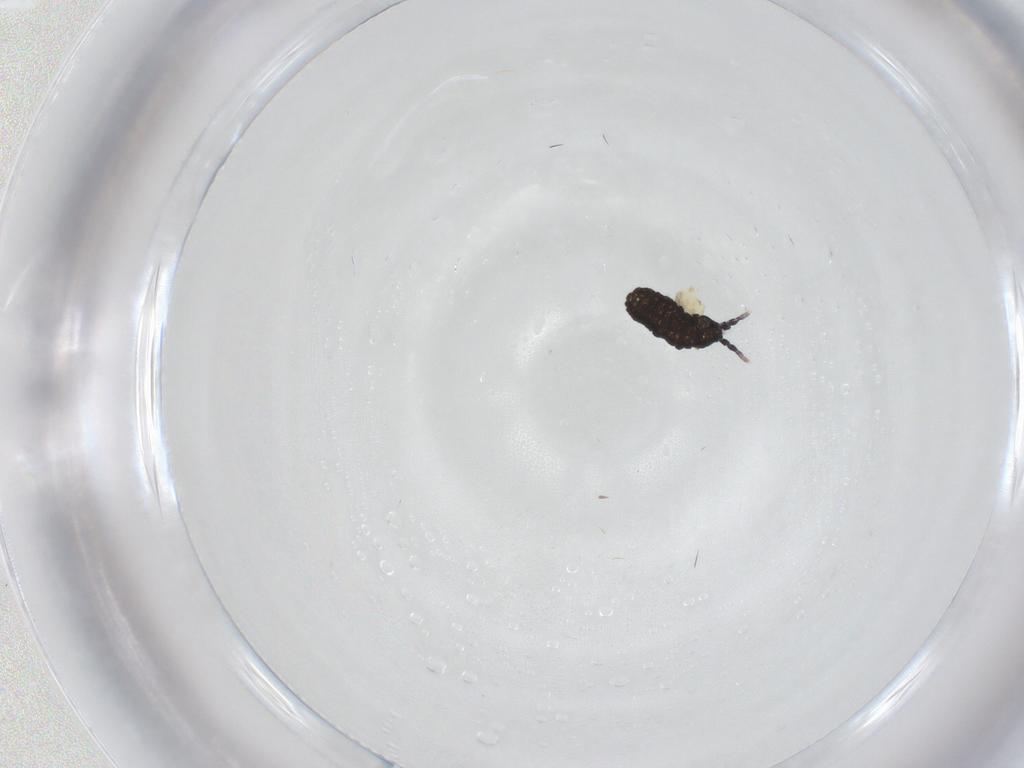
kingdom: Animalia
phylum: Arthropoda
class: Collembola
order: Poduromorpha
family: Neanuridae
